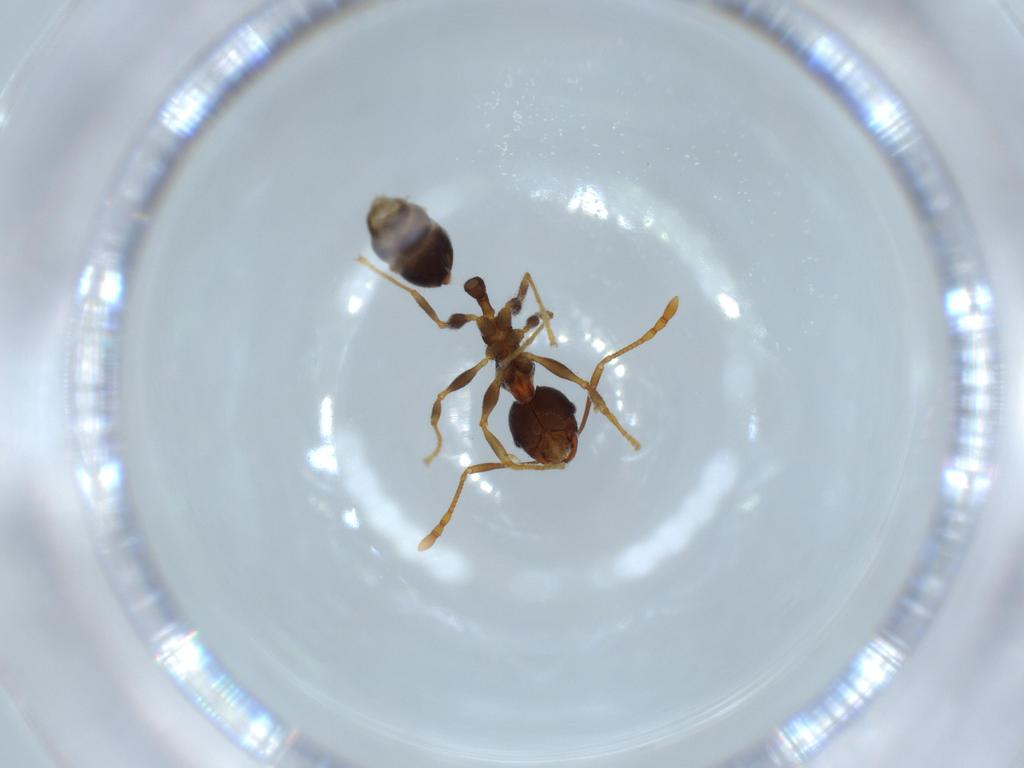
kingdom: Animalia
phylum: Arthropoda
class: Insecta
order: Hymenoptera
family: Formicidae
